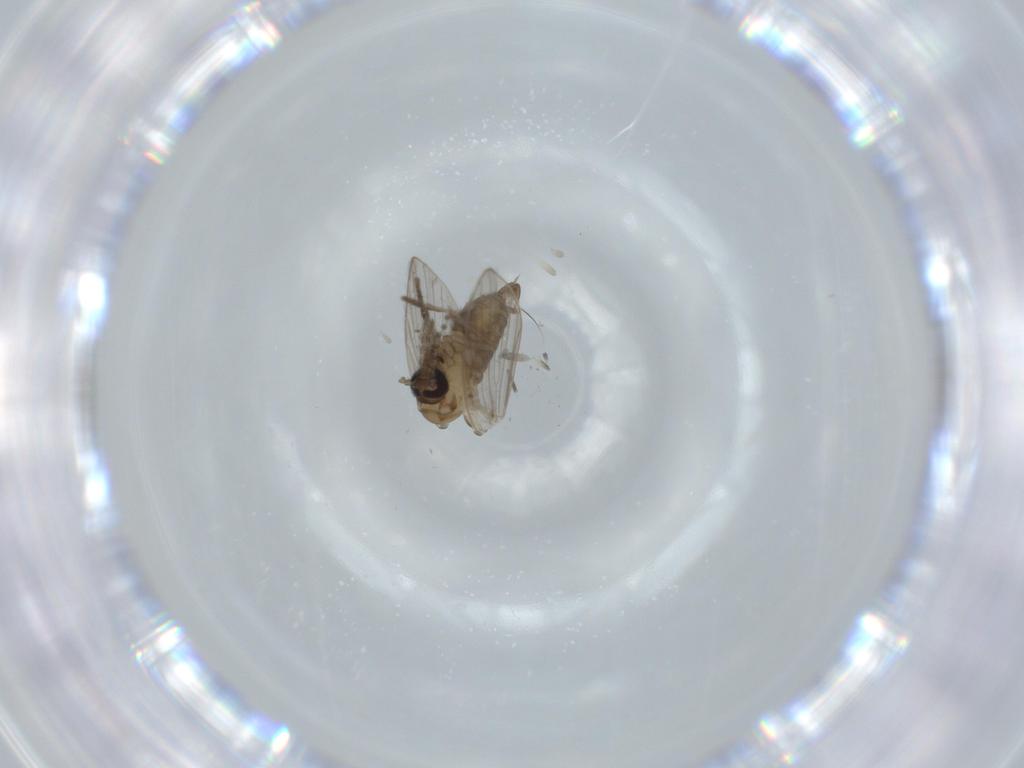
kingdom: Animalia
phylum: Arthropoda
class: Insecta
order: Diptera
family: Psychodidae
